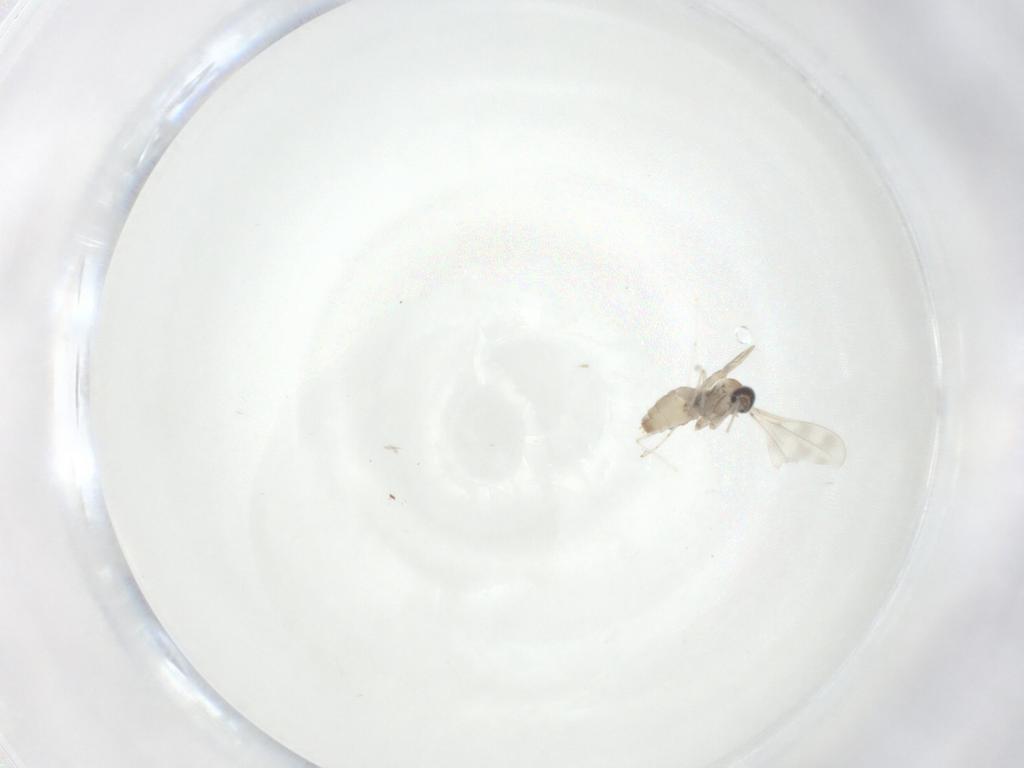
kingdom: Animalia
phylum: Arthropoda
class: Insecta
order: Diptera
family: Cecidomyiidae
